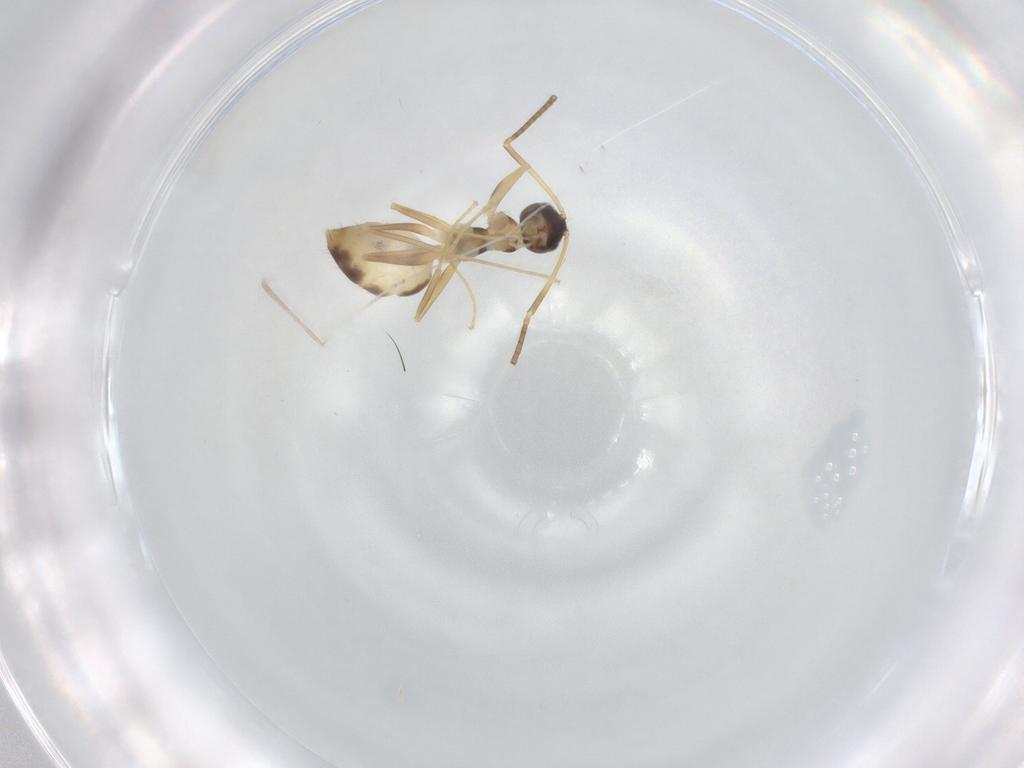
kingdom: Animalia
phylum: Arthropoda
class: Insecta
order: Hymenoptera
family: Formicidae
